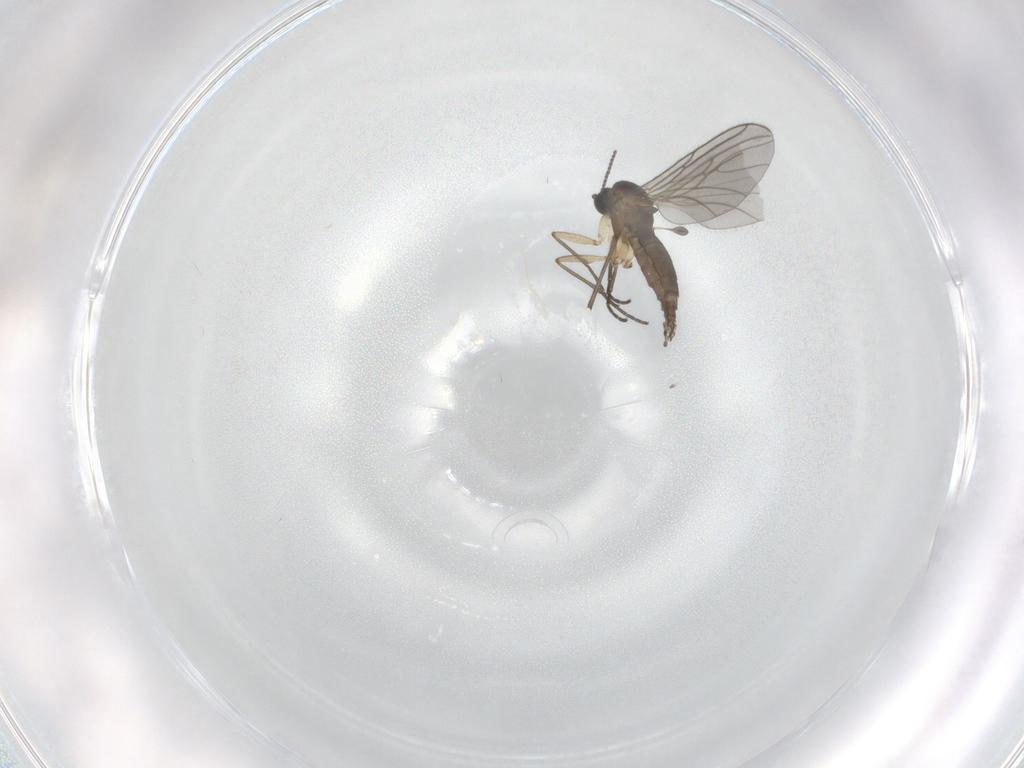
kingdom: Animalia
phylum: Arthropoda
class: Insecta
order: Diptera
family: Sciaridae
